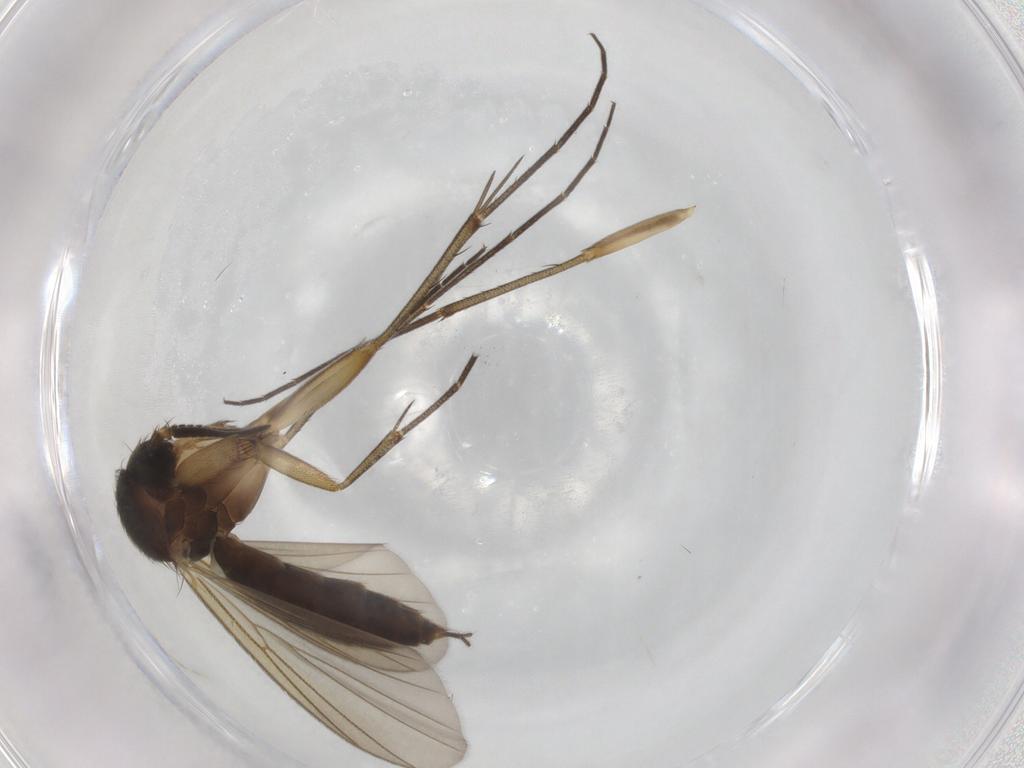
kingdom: Animalia
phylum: Arthropoda
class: Insecta
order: Diptera
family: Mycetophilidae
